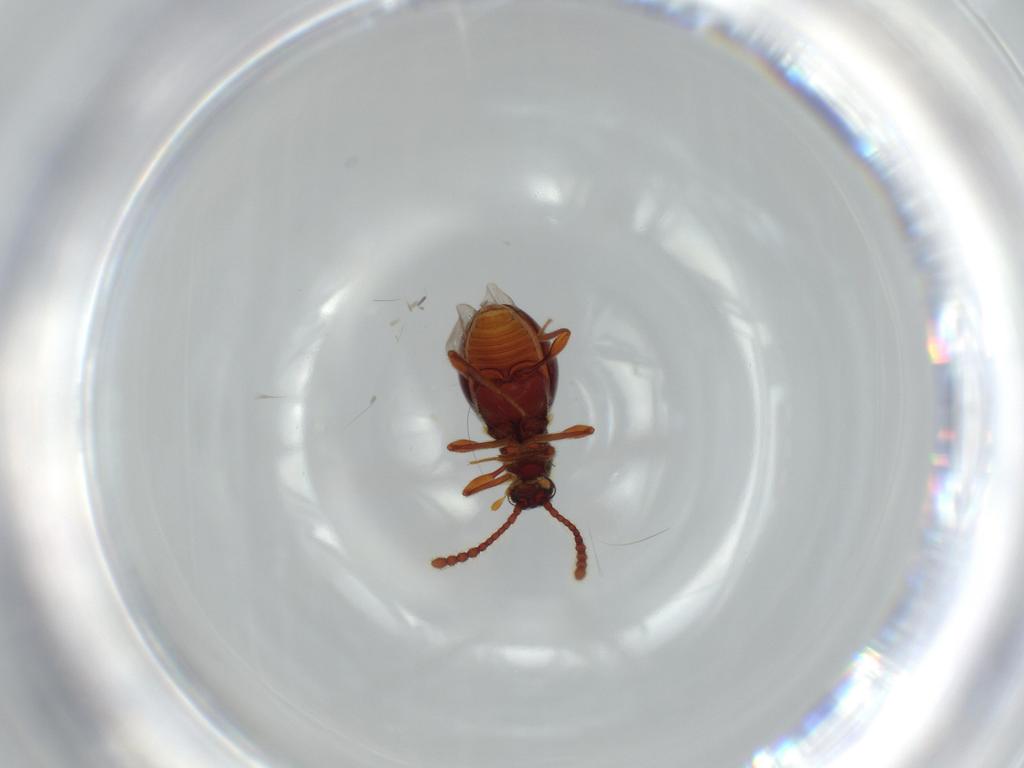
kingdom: Animalia
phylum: Arthropoda
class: Insecta
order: Coleoptera
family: Staphylinidae
